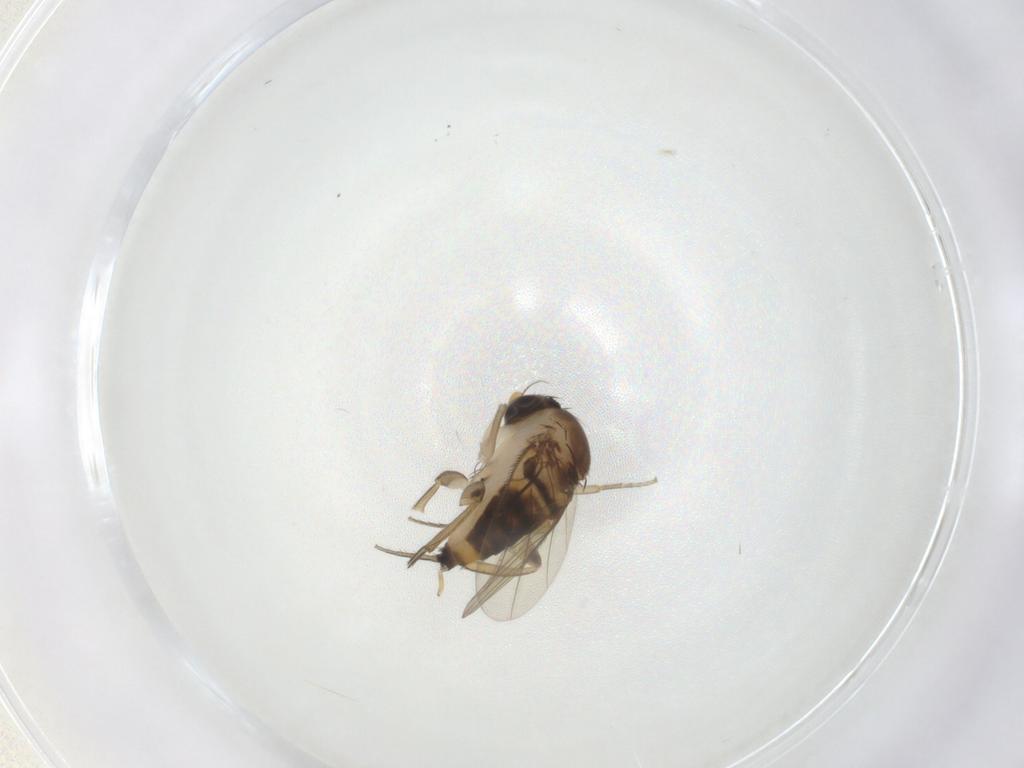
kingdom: Animalia
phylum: Arthropoda
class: Insecta
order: Diptera
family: Phoridae
